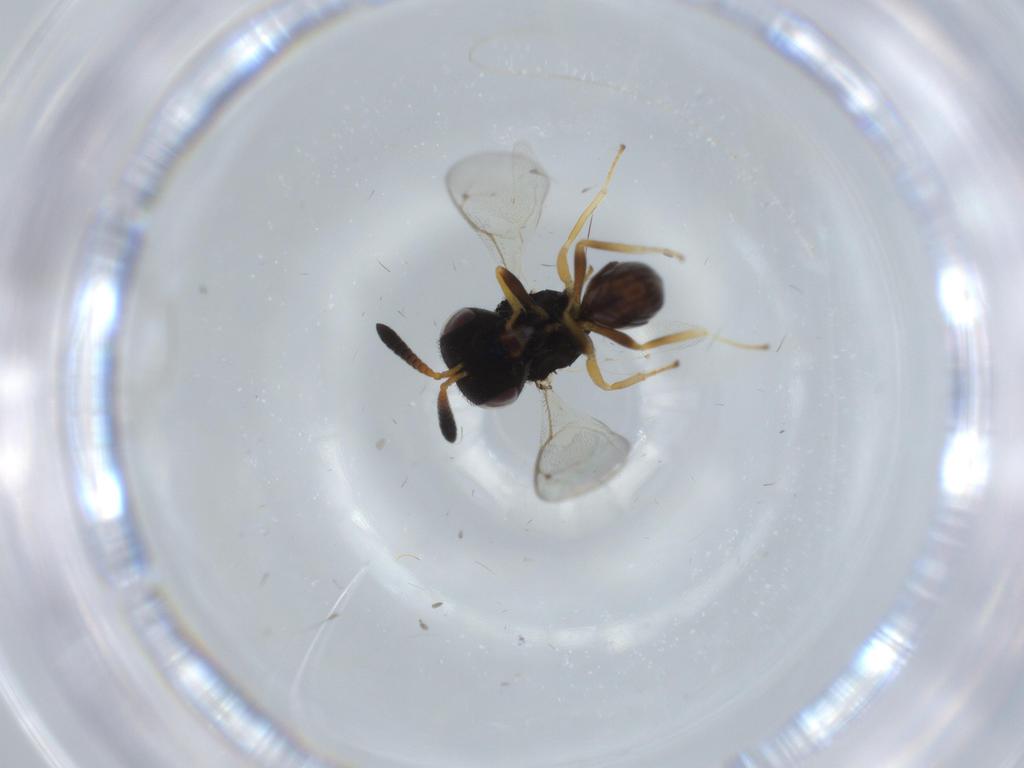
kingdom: Animalia
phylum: Arthropoda
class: Insecta
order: Hymenoptera
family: Pteromalidae
